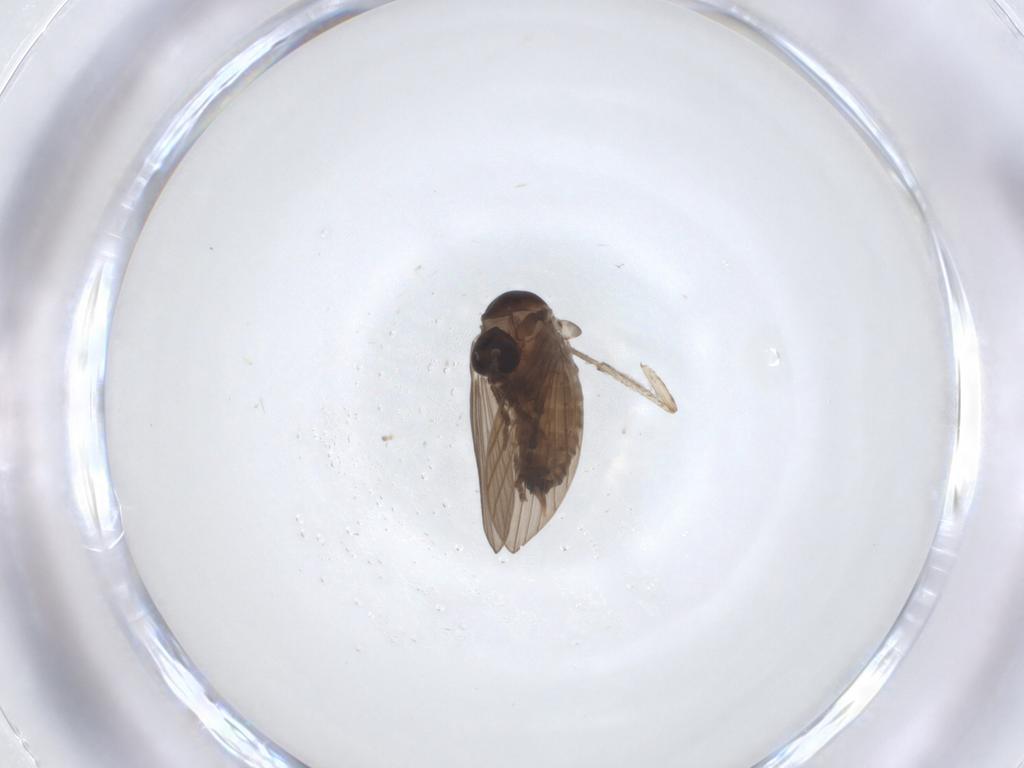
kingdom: Animalia
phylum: Arthropoda
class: Insecta
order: Diptera
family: Psychodidae
